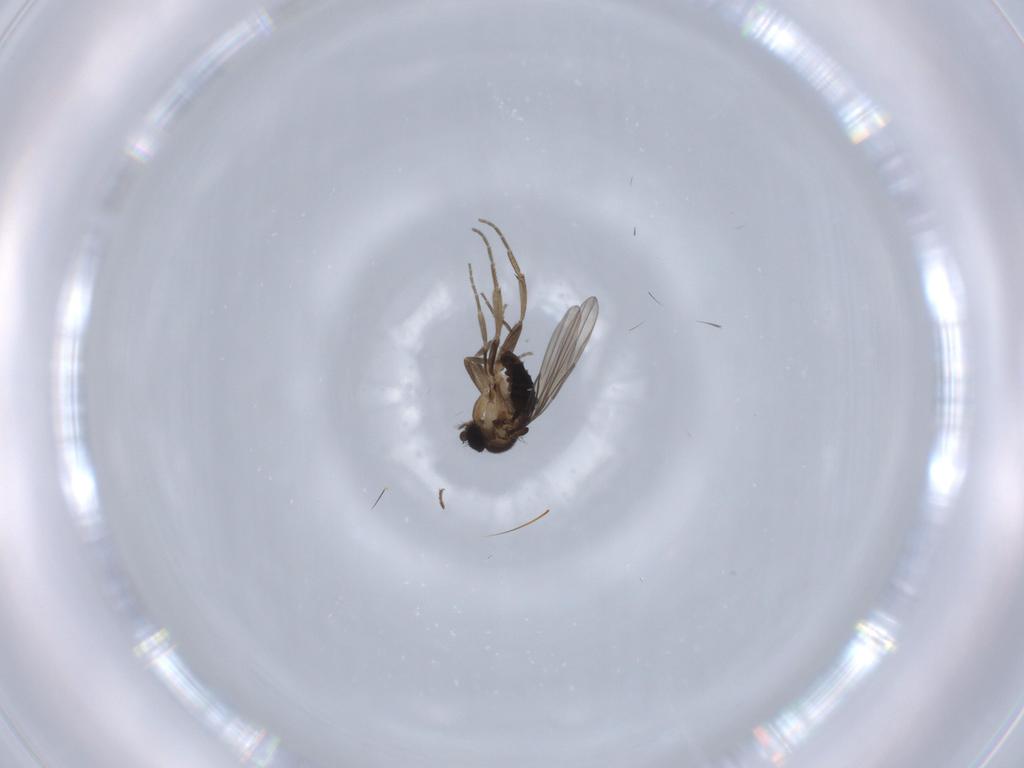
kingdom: Animalia
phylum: Arthropoda
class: Insecta
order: Diptera
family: Phoridae
